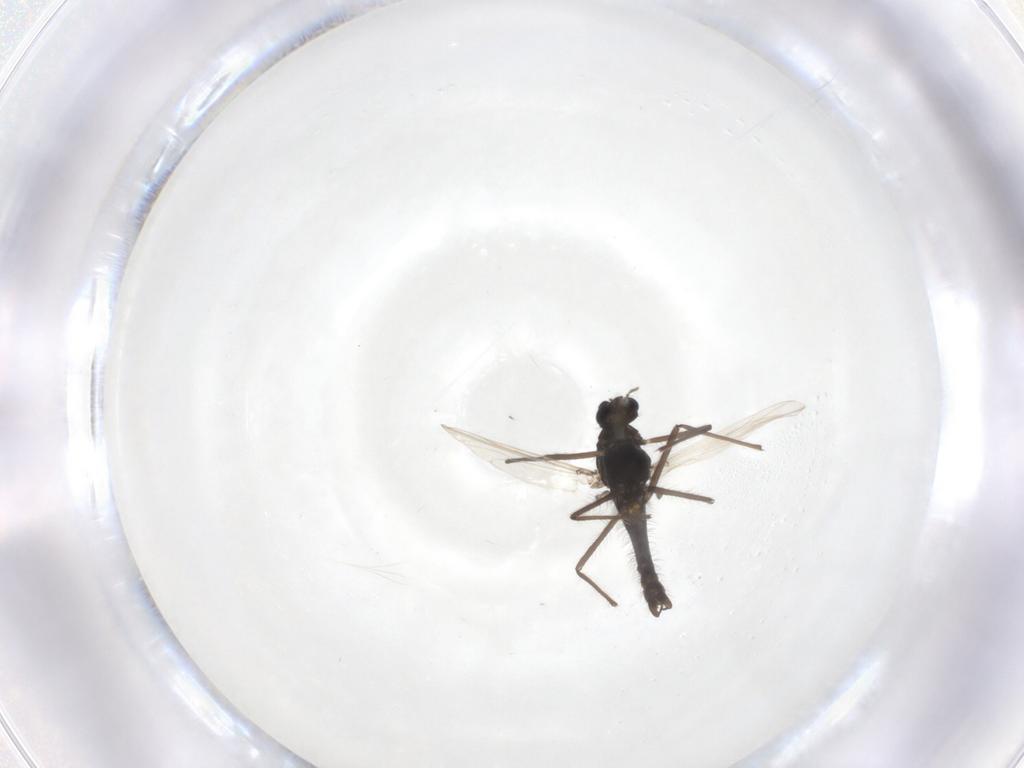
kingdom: Animalia
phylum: Arthropoda
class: Insecta
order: Diptera
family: Chironomidae
